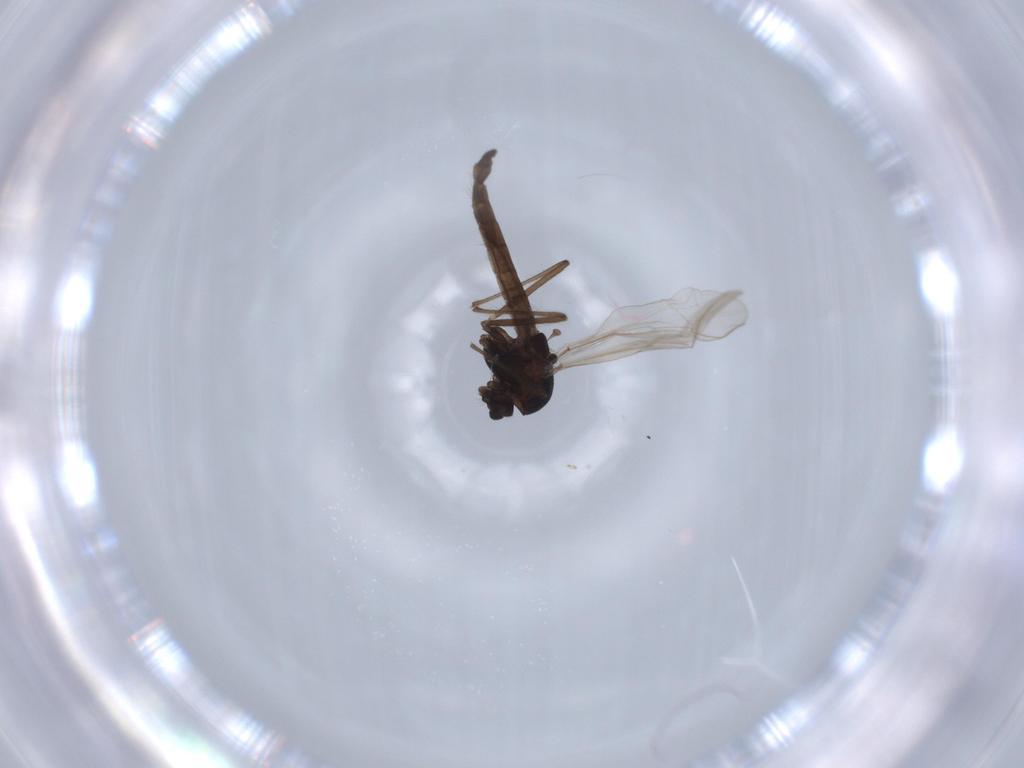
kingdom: Animalia
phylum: Arthropoda
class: Insecta
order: Diptera
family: Chironomidae
